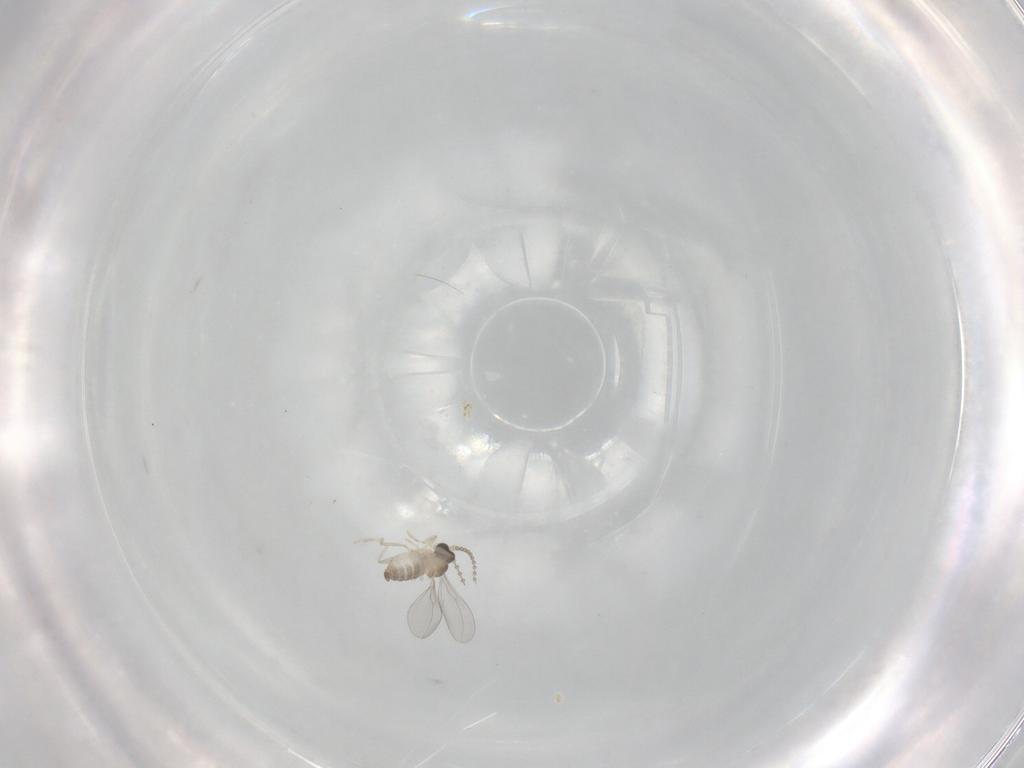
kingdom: Animalia
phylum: Arthropoda
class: Insecta
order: Diptera
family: Cecidomyiidae
